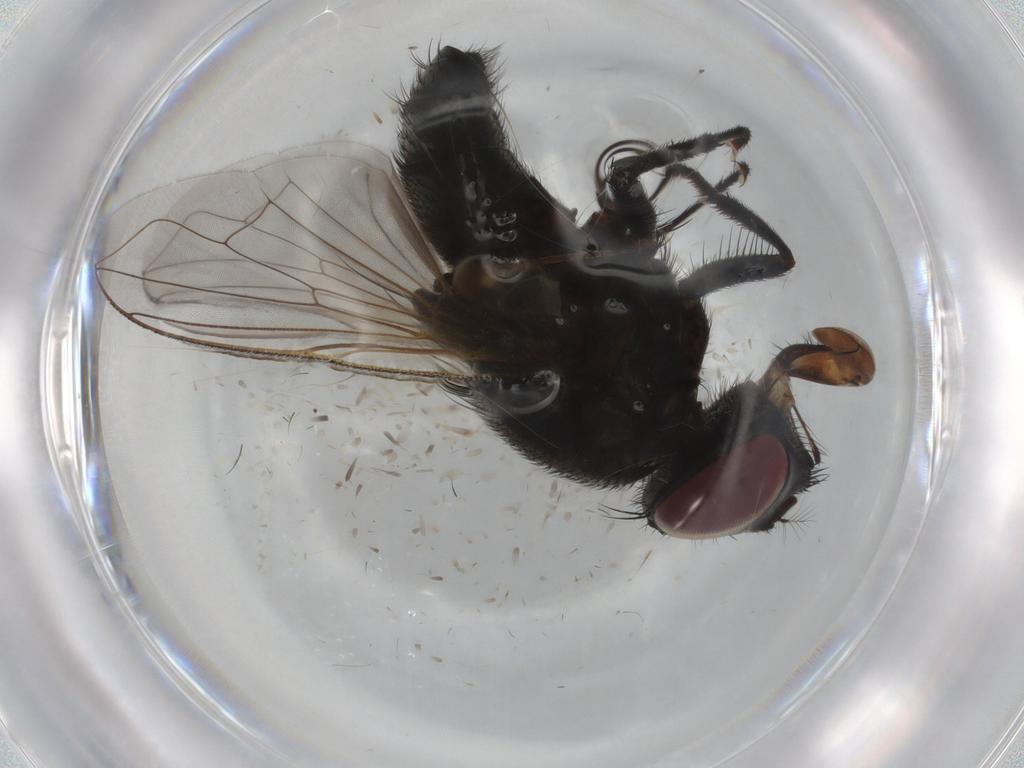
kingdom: Animalia
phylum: Arthropoda
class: Insecta
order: Diptera
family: Muscidae
